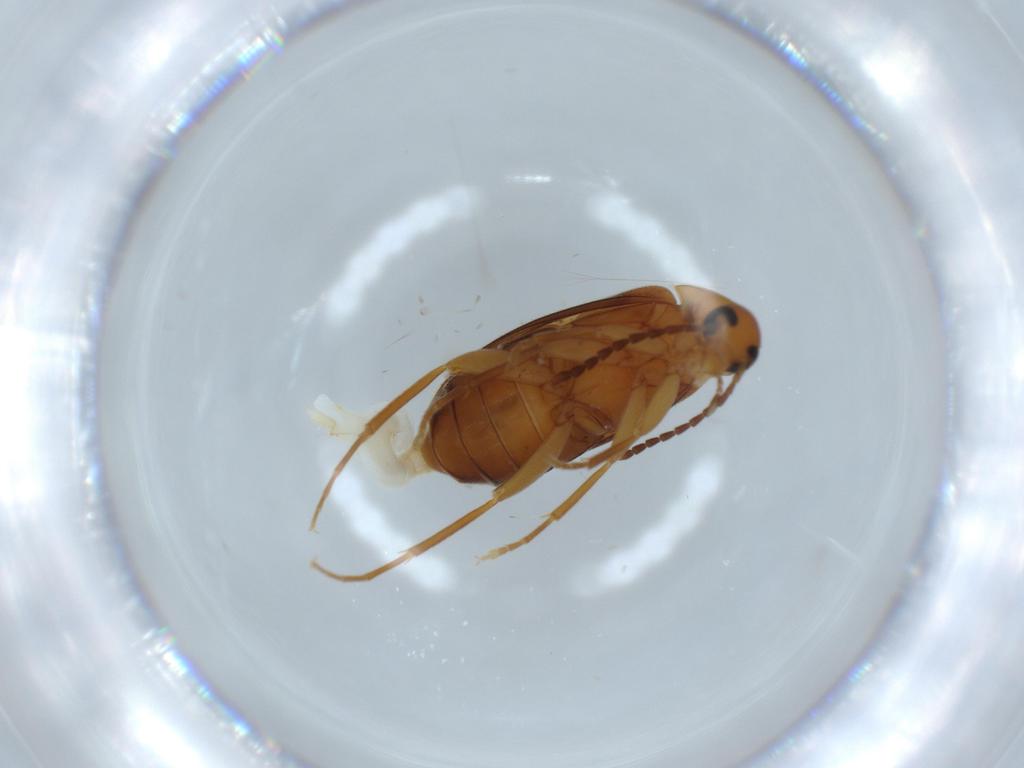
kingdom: Animalia
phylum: Arthropoda
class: Insecta
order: Coleoptera
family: Scraptiidae
